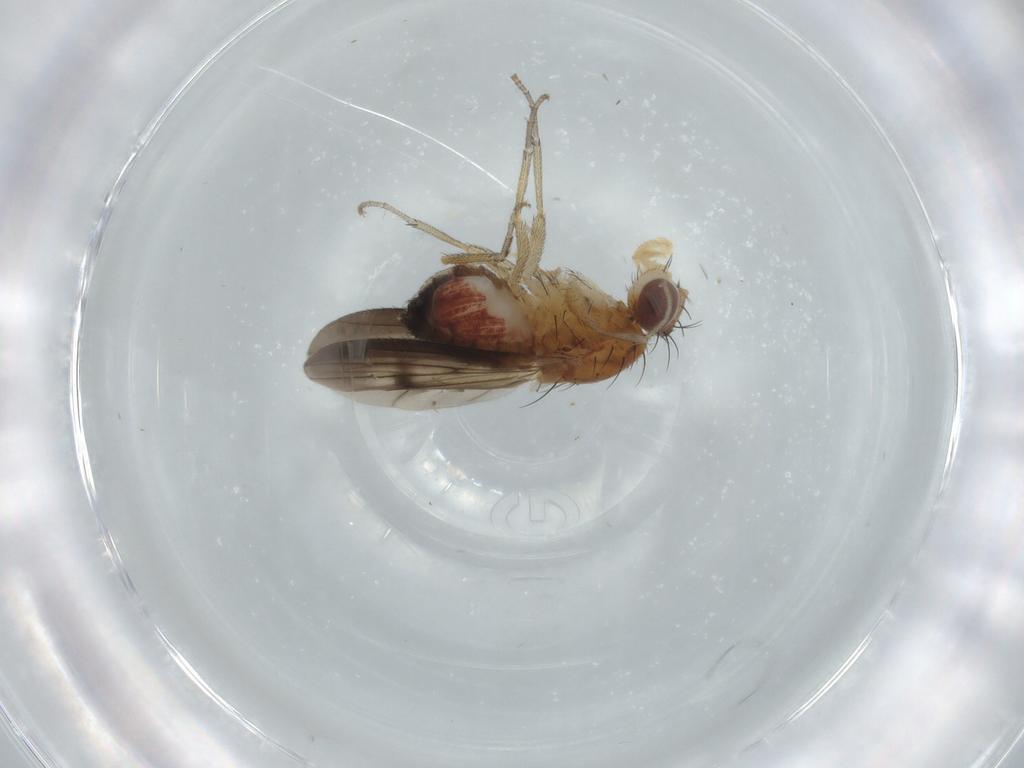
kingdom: Animalia
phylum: Arthropoda
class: Insecta
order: Diptera
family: Heleomyzidae
